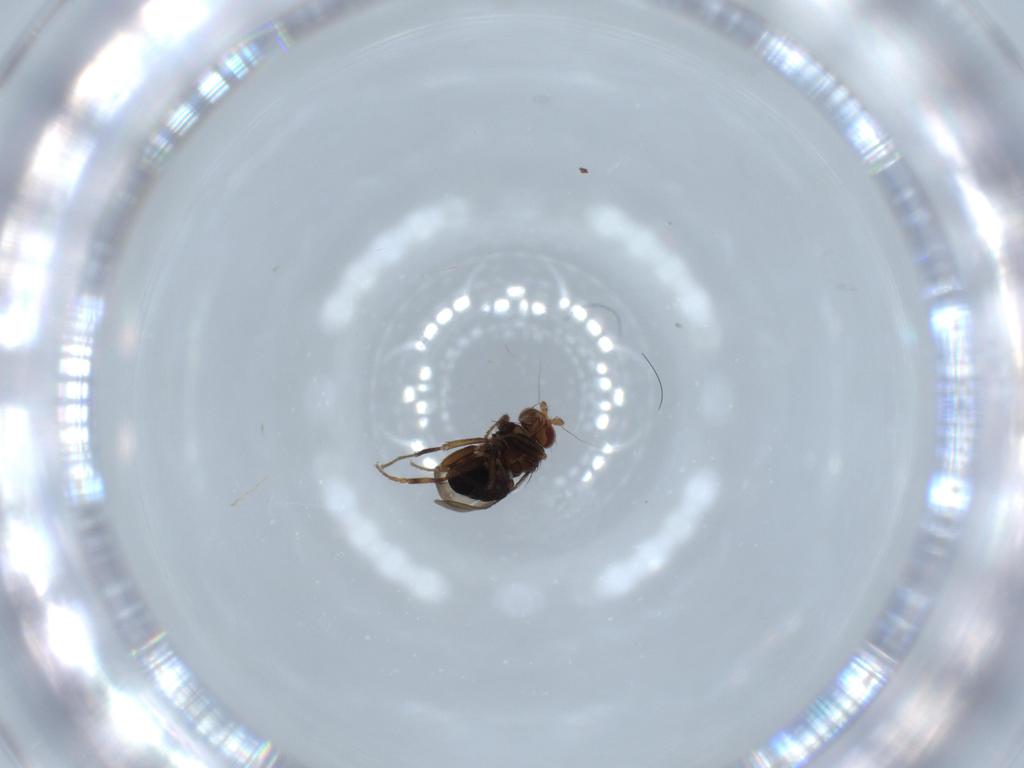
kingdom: Animalia
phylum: Arthropoda
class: Insecta
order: Diptera
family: Sphaeroceridae
